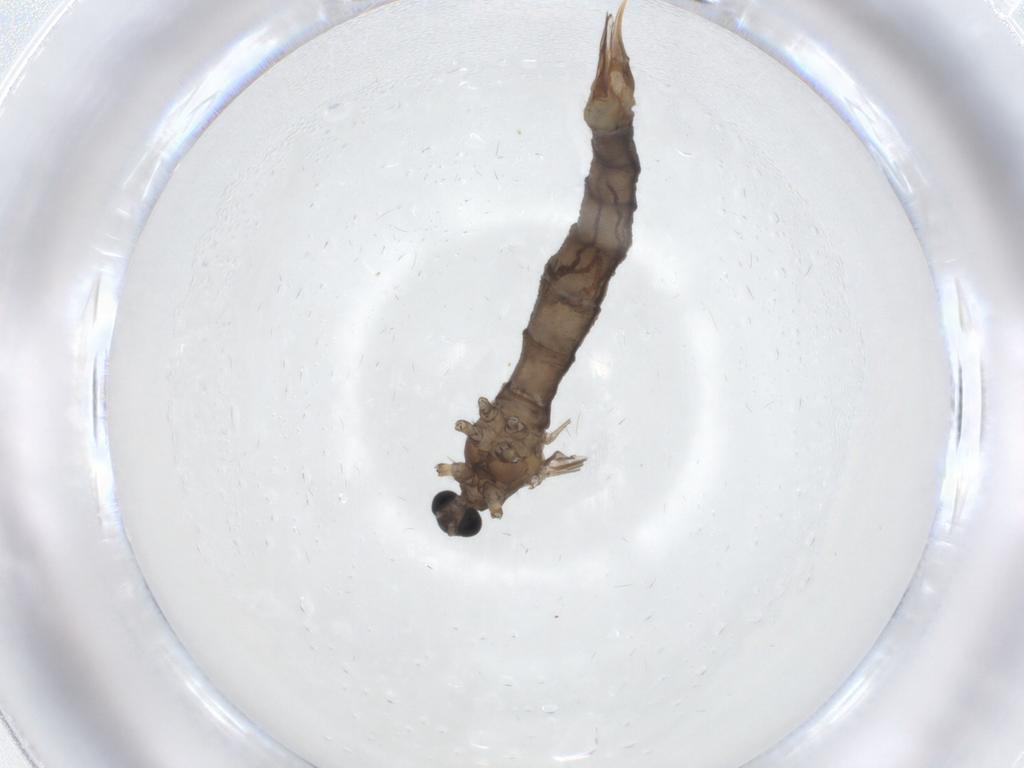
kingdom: Animalia
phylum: Arthropoda
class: Insecta
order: Diptera
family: Limoniidae
